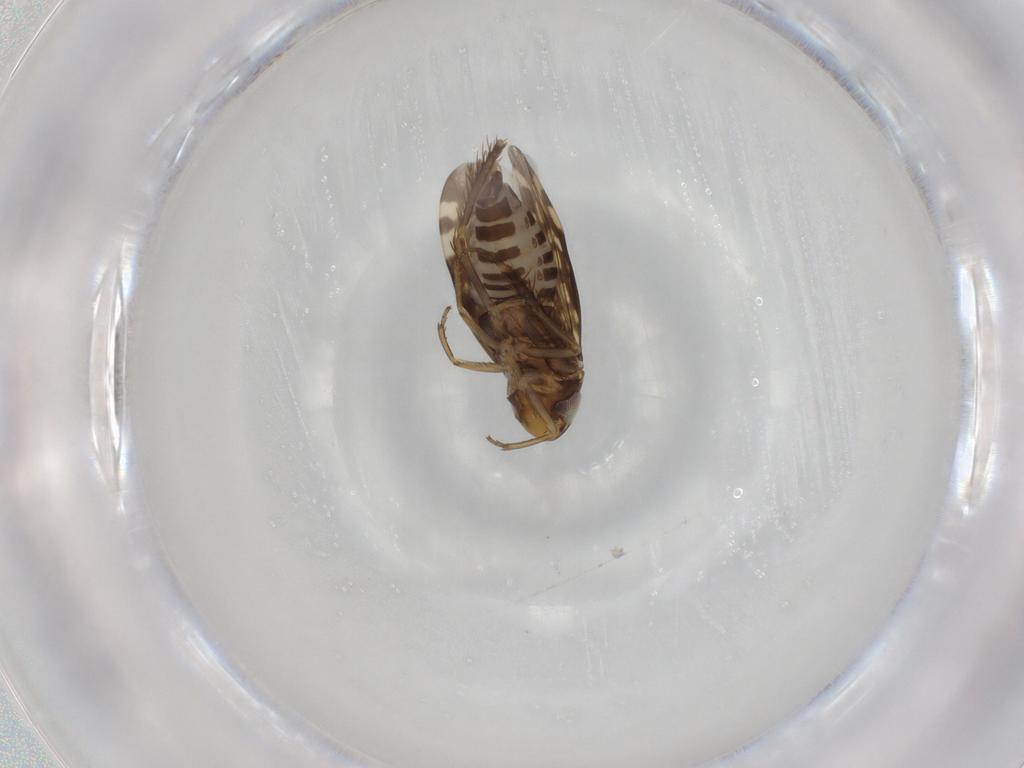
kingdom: Animalia
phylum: Arthropoda
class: Insecta
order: Hemiptera
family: Cicadellidae
